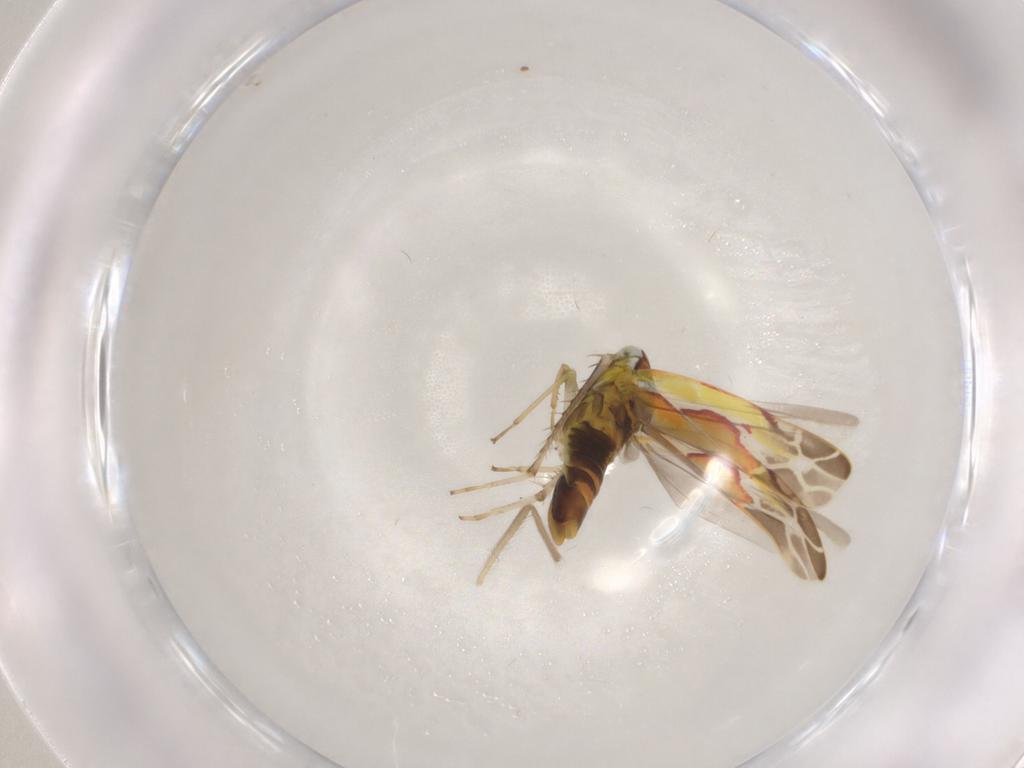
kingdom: Animalia
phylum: Arthropoda
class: Insecta
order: Hemiptera
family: Cicadellidae
